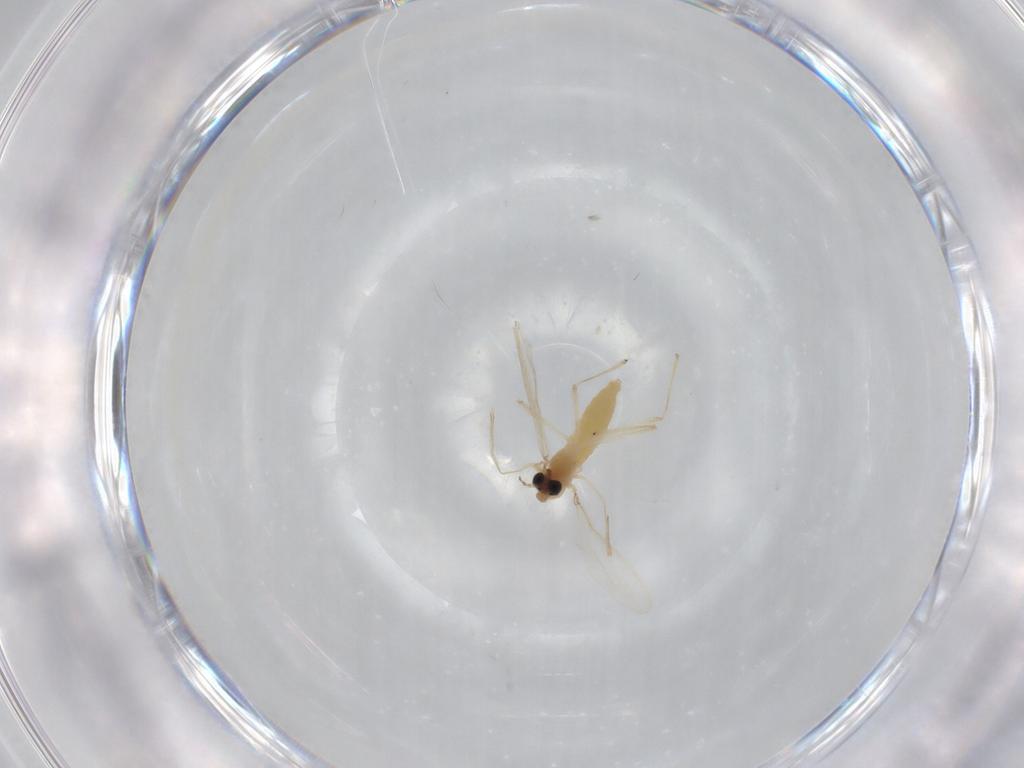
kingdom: Animalia
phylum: Arthropoda
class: Insecta
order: Diptera
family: Chironomidae
